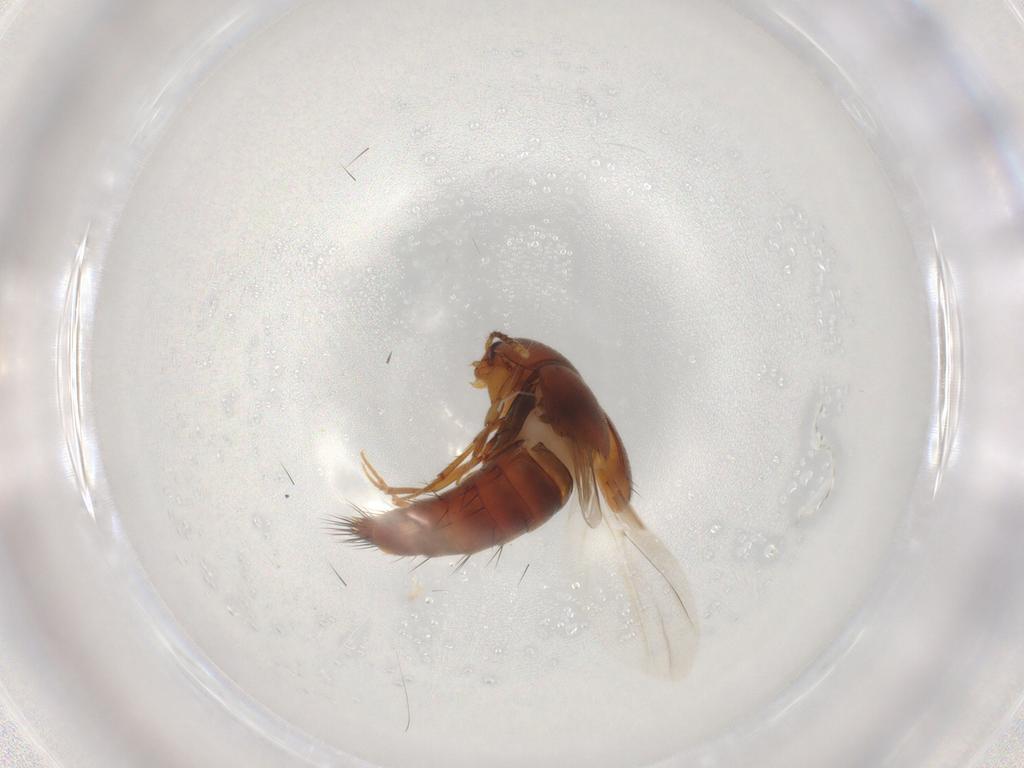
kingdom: Animalia
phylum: Arthropoda
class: Insecta
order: Coleoptera
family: Staphylinidae
